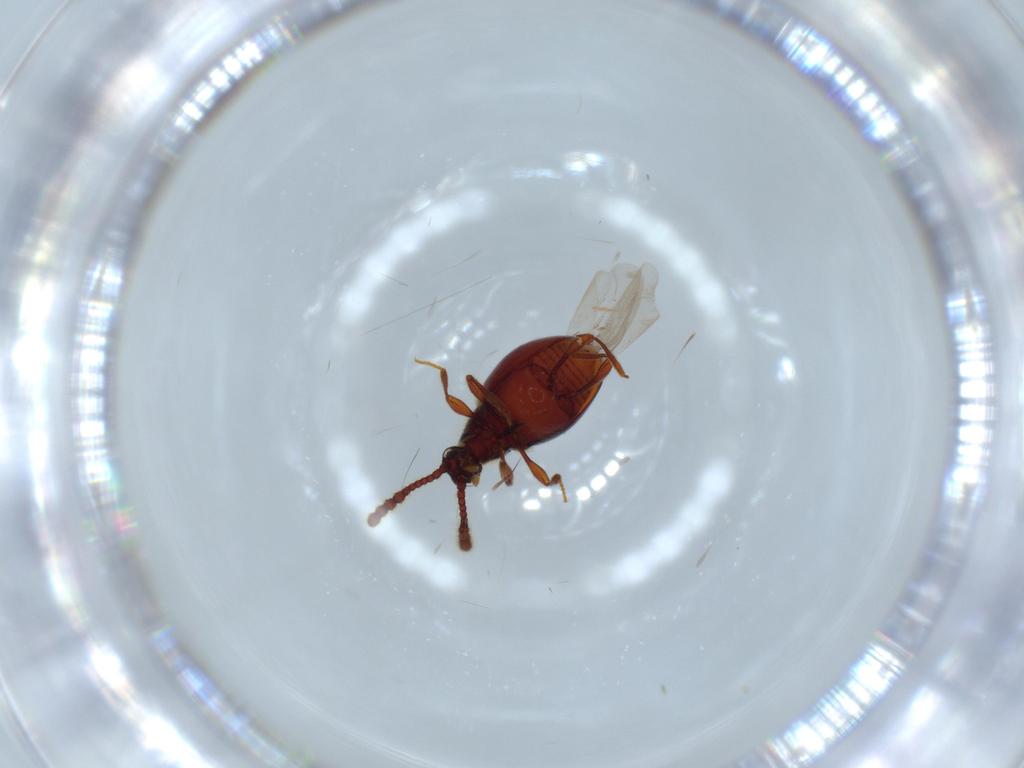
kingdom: Animalia
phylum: Arthropoda
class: Insecta
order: Coleoptera
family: Staphylinidae
